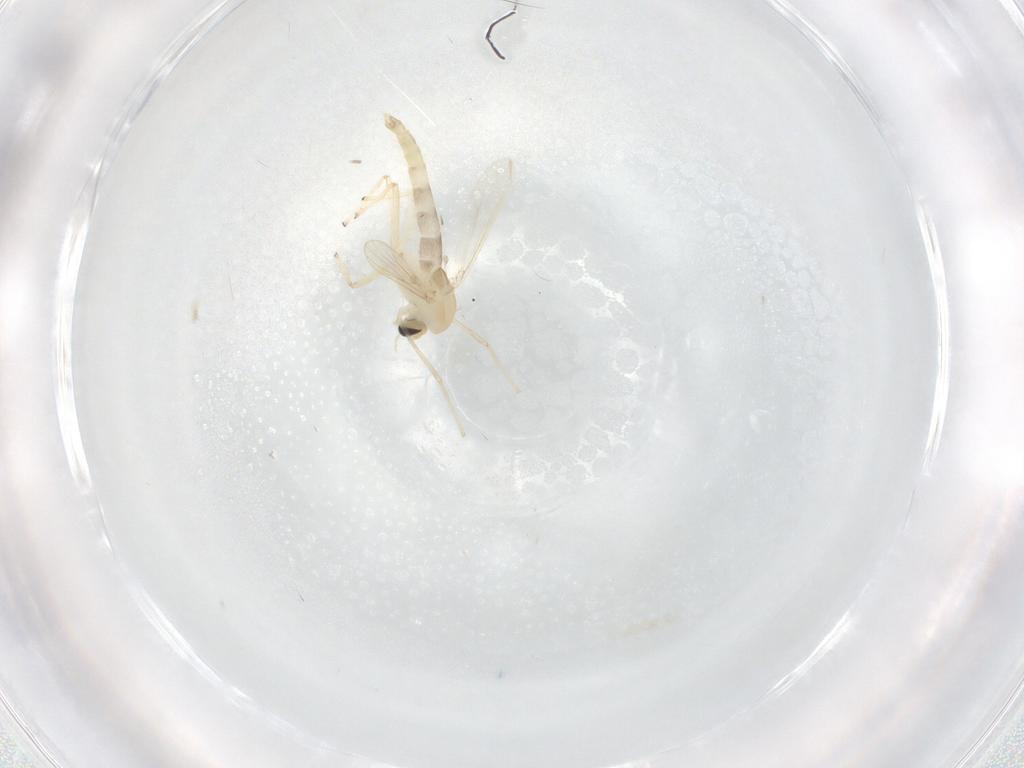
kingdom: Animalia
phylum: Arthropoda
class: Insecta
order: Diptera
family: Chironomidae
